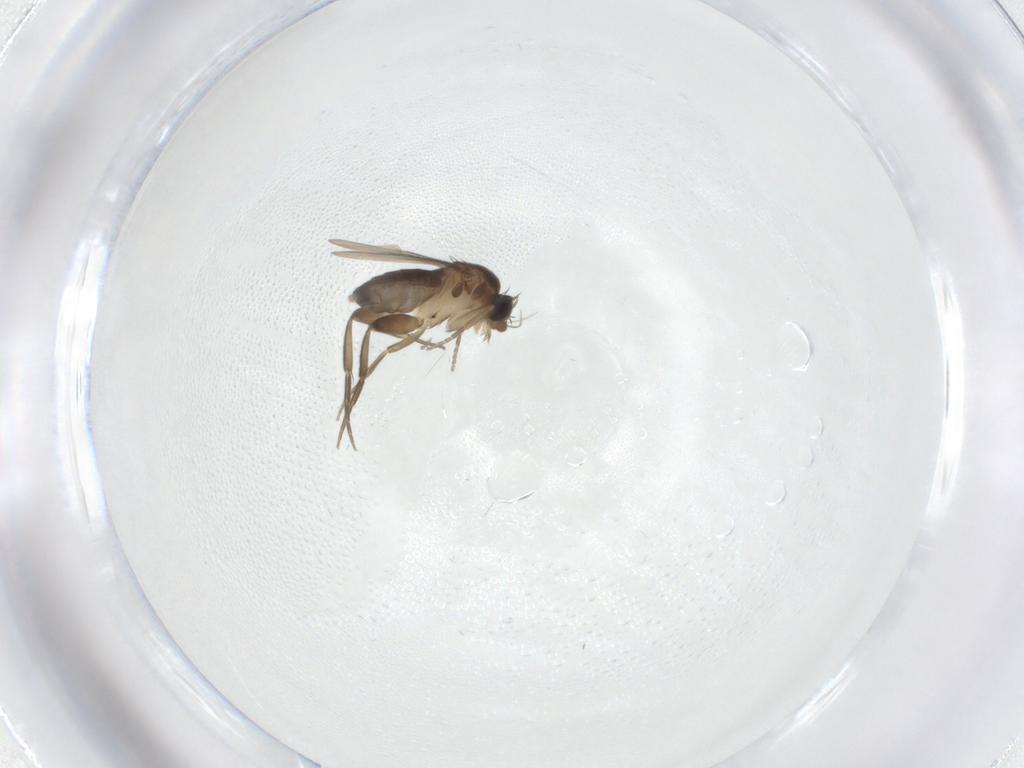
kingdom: Animalia
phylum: Arthropoda
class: Insecta
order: Diptera
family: Phoridae
